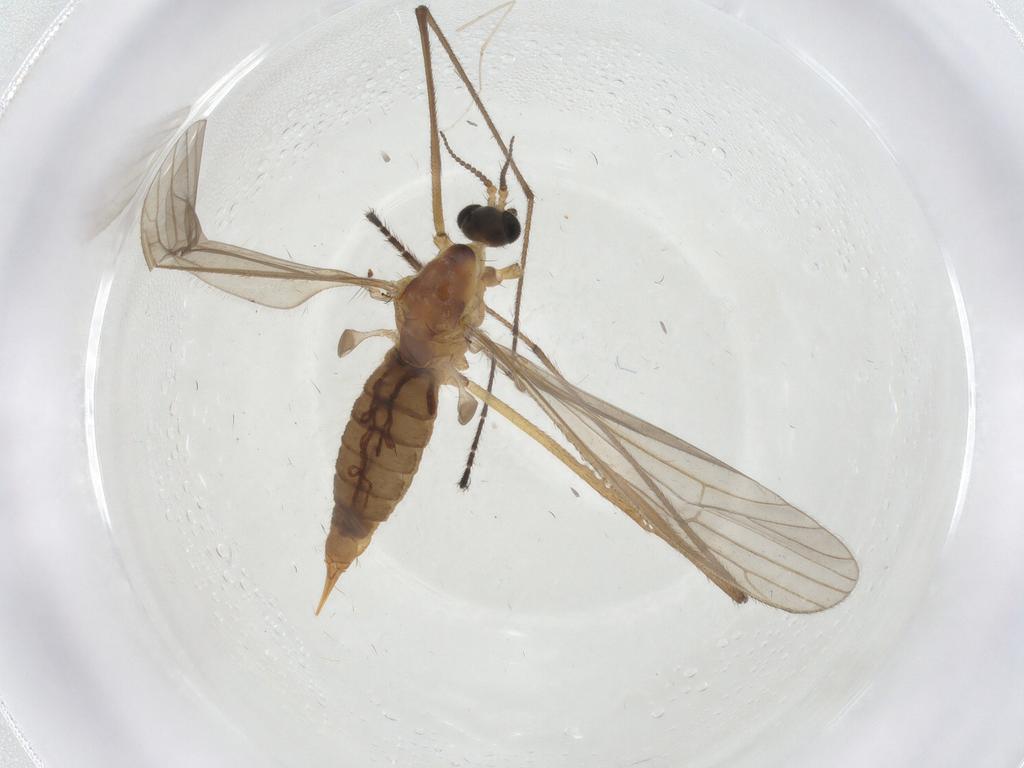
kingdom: Animalia
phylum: Arthropoda
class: Insecta
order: Diptera
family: Limoniidae
